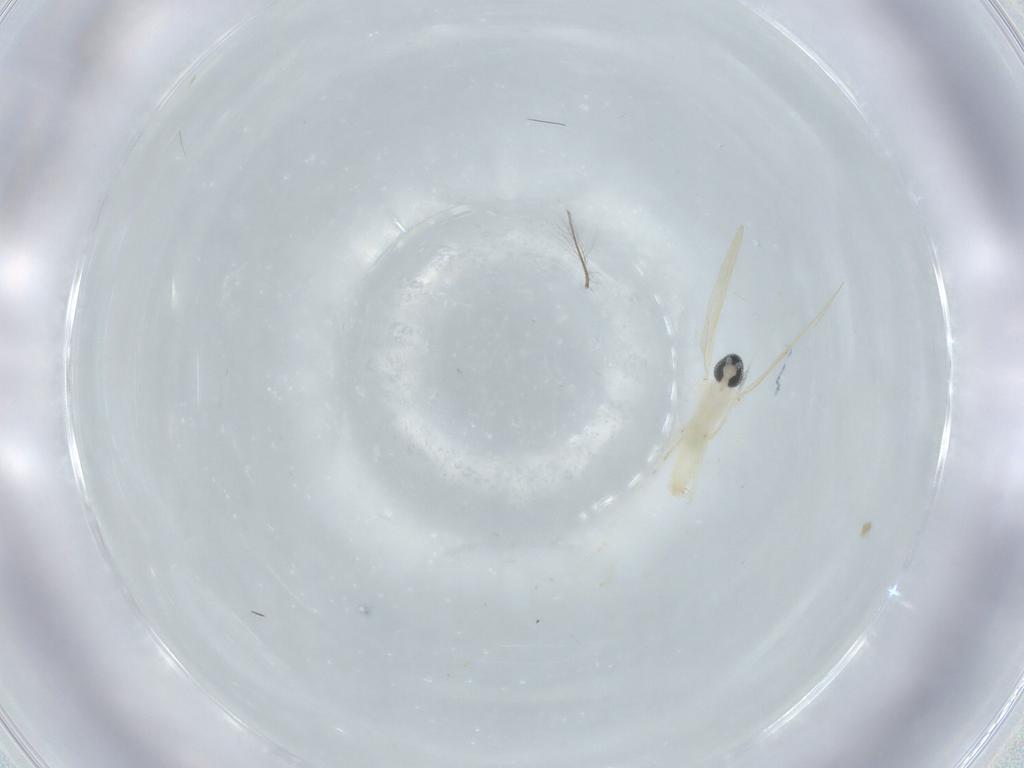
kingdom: Animalia
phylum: Arthropoda
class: Insecta
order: Diptera
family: Cecidomyiidae
